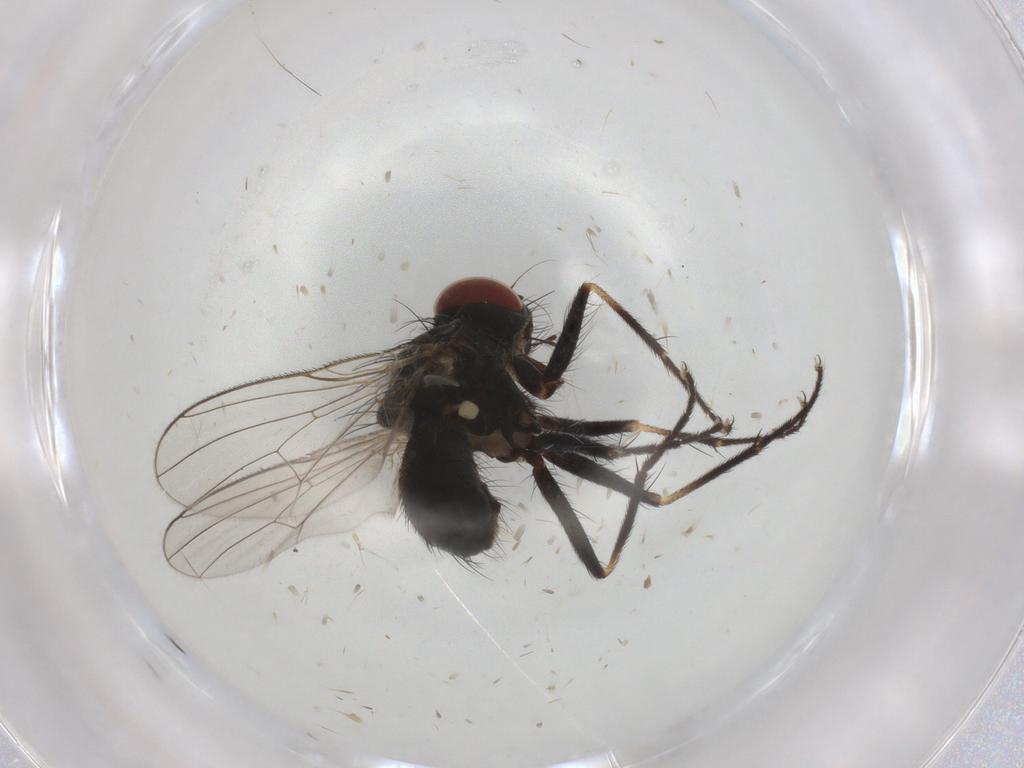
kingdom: Animalia
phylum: Arthropoda
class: Insecta
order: Diptera
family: Muscidae
